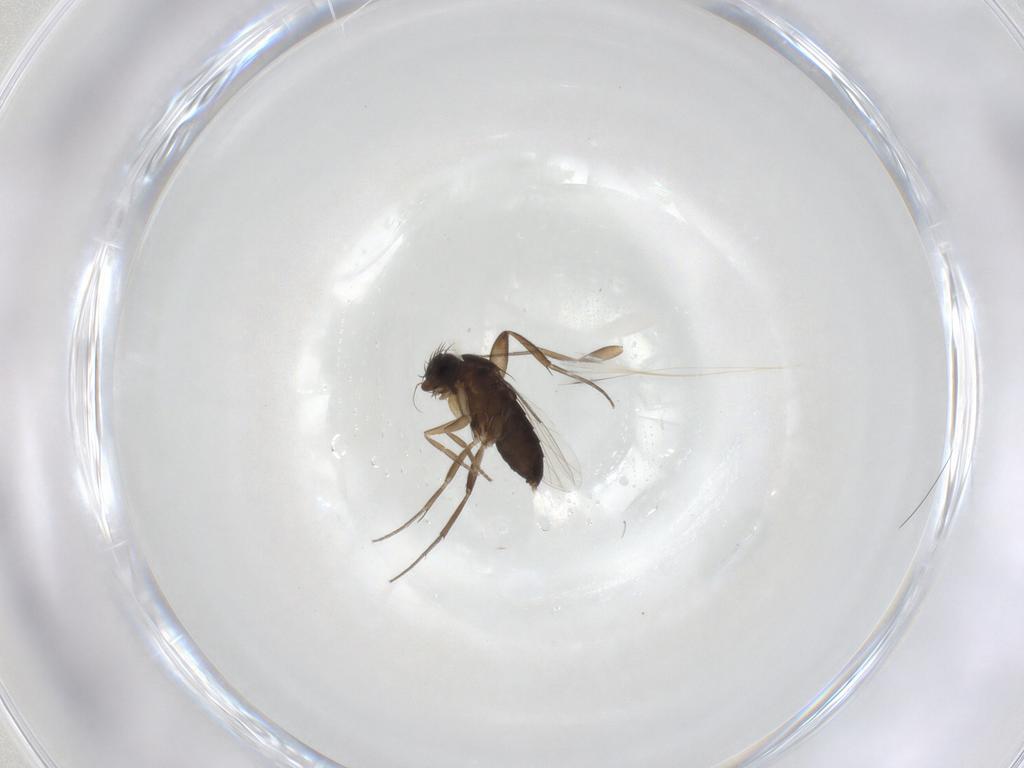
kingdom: Animalia
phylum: Arthropoda
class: Insecta
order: Diptera
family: Phoridae
